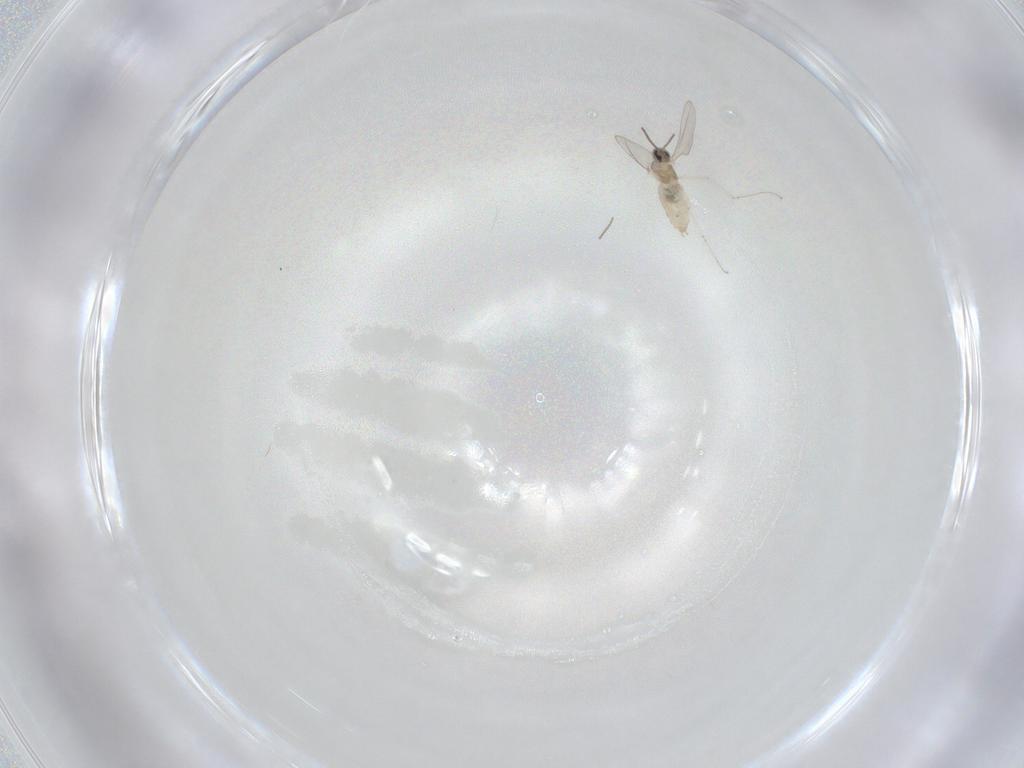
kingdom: Animalia
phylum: Arthropoda
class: Insecta
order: Diptera
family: Cecidomyiidae
